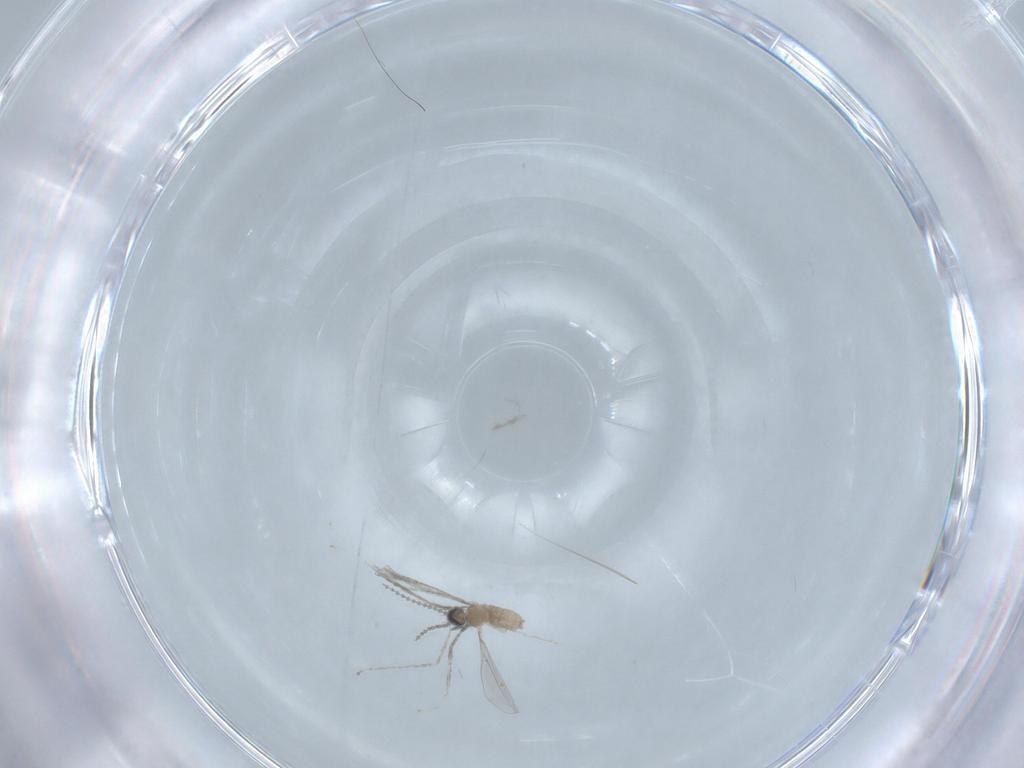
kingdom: Animalia
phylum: Arthropoda
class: Insecta
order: Diptera
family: Cecidomyiidae
